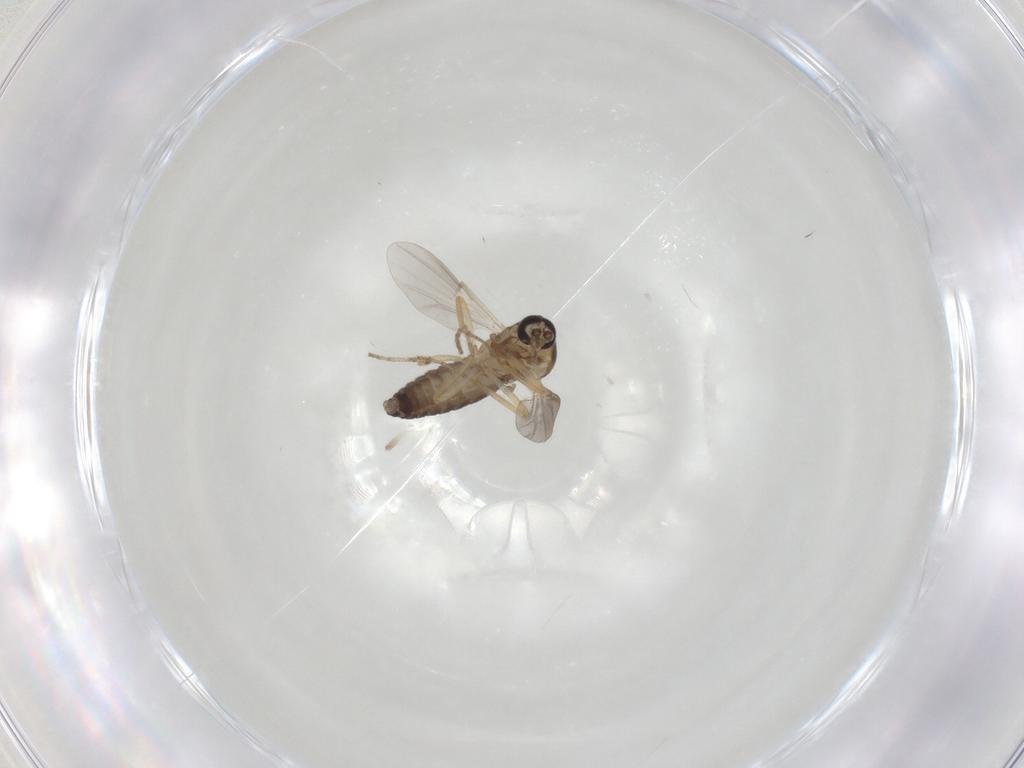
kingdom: Animalia
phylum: Arthropoda
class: Insecta
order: Diptera
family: Ceratopogonidae
